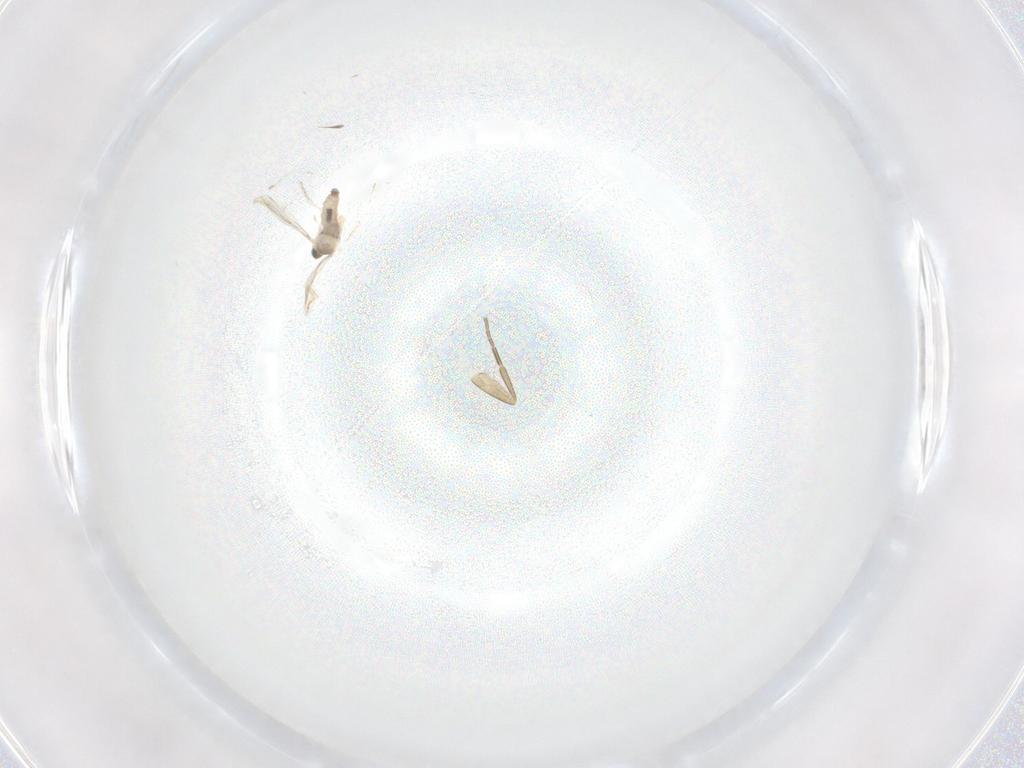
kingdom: Animalia
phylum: Arthropoda
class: Insecta
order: Diptera
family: Phoridae
